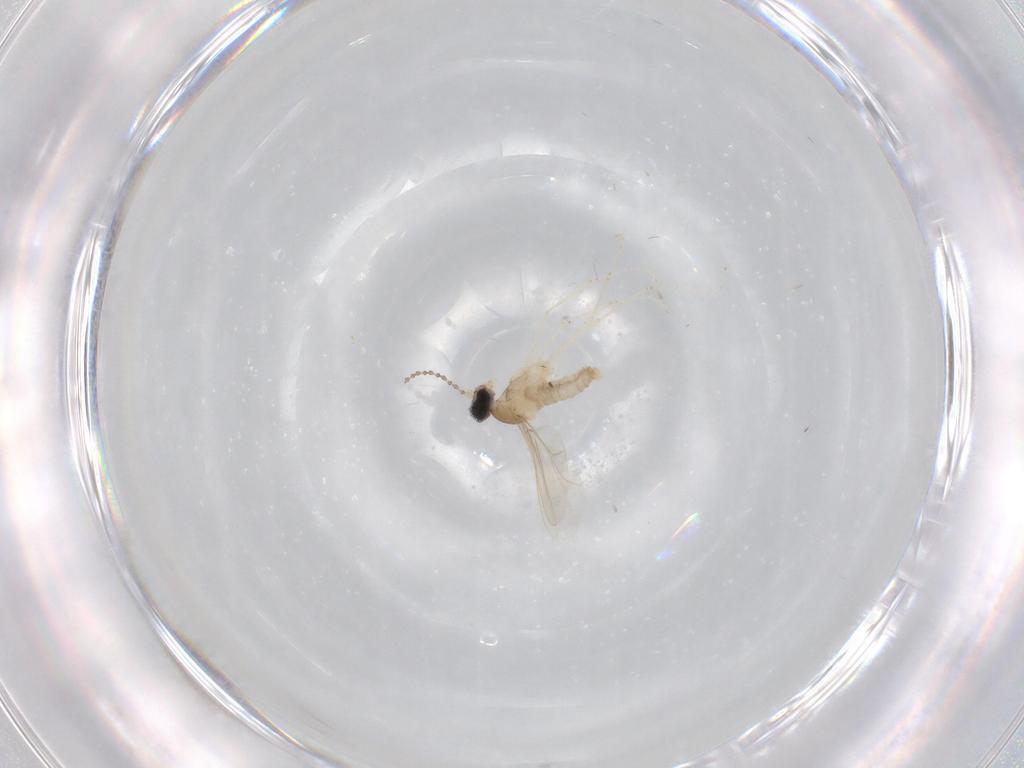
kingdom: Animalia
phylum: Arthropoda
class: Insecta
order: Diptera
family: Cecidomyiidae
